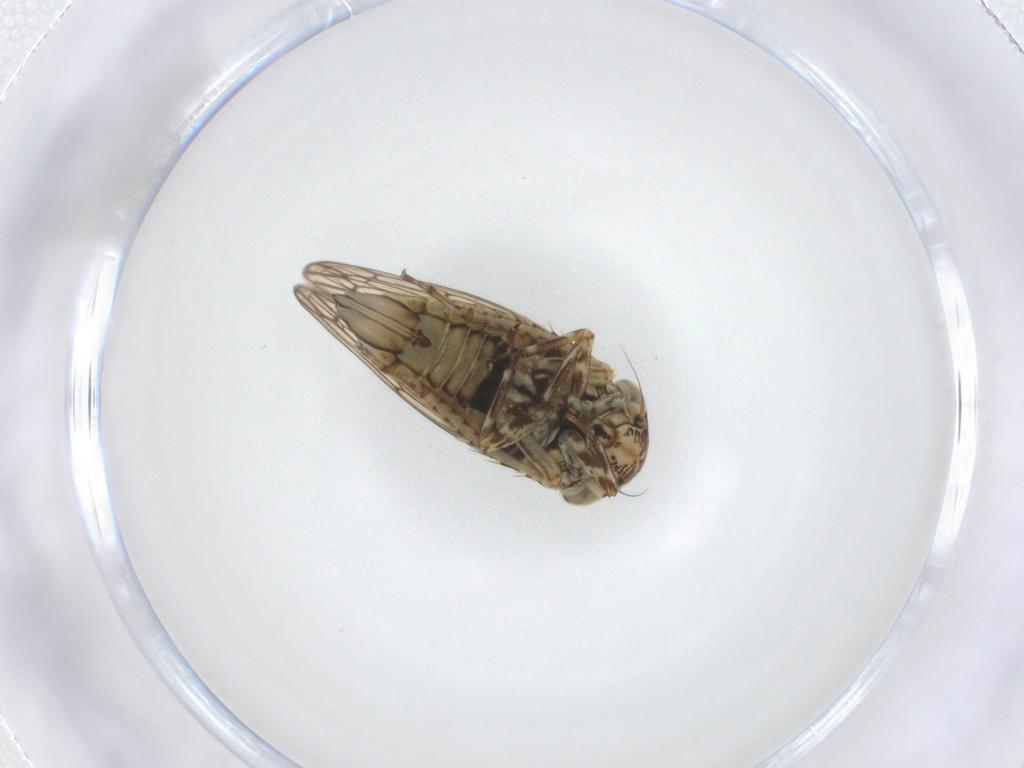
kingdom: Animalia
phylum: Arthropoda
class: Insecta
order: Hemiptera
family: Cicadellidae
